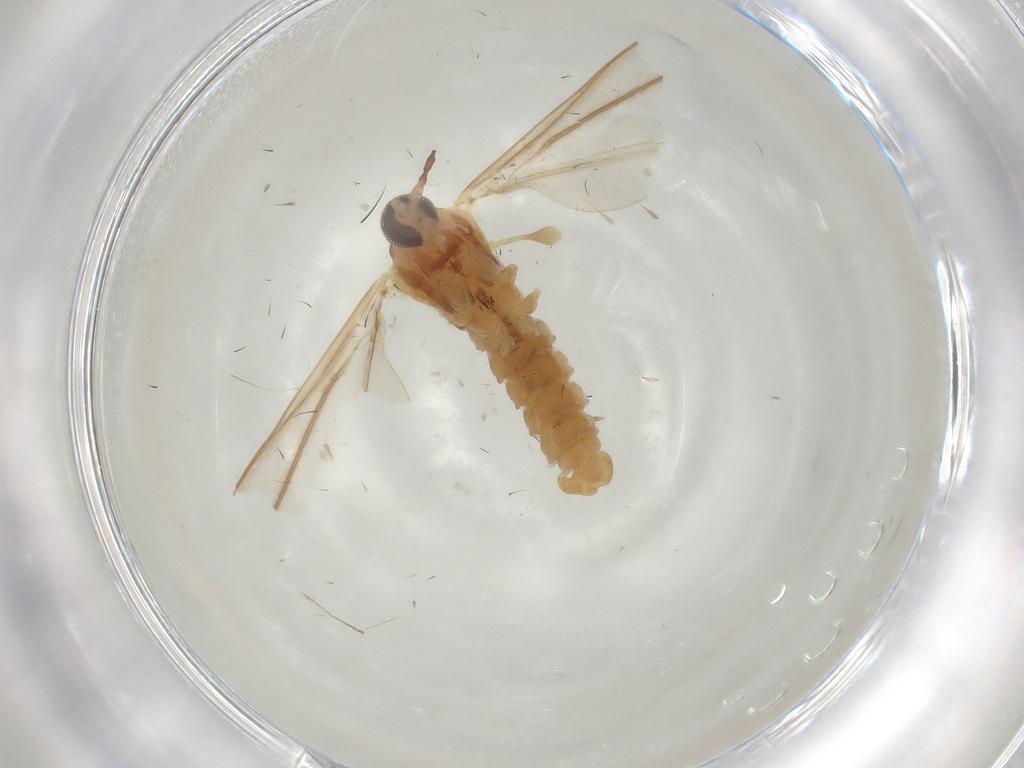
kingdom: Animalia
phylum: Arthropoda
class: Insecta
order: Diptera
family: Cecidomyiidae
